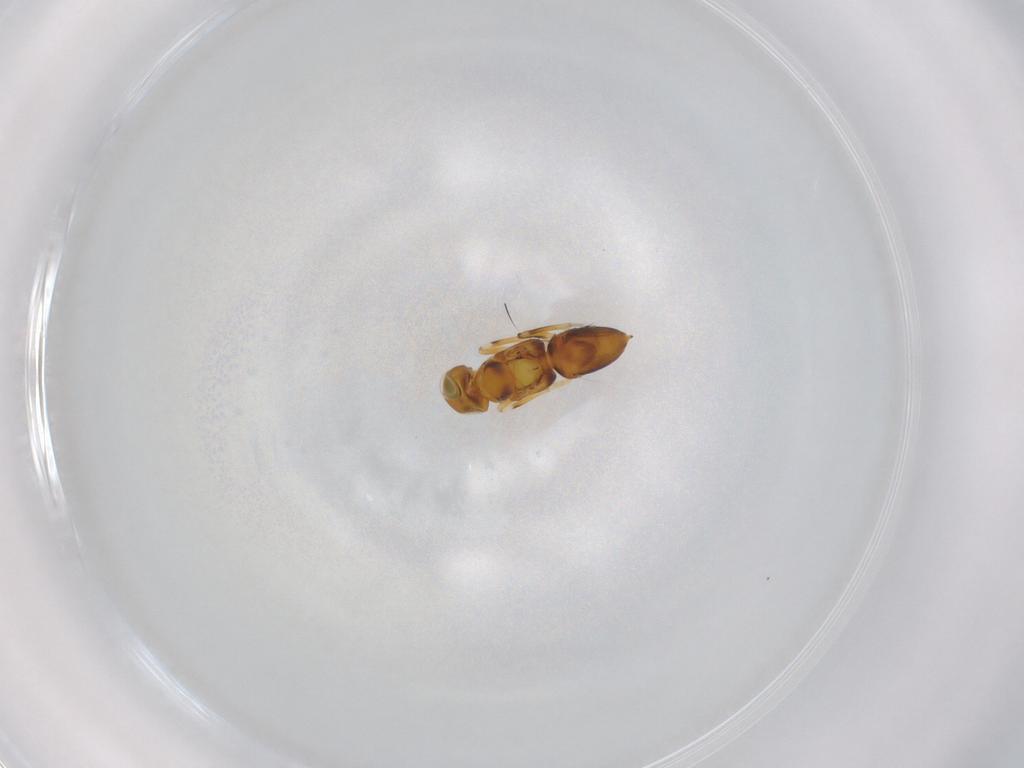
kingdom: Animalia
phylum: Arthropoda
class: Insecta
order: Hymenoptera
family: Encyrtidae
